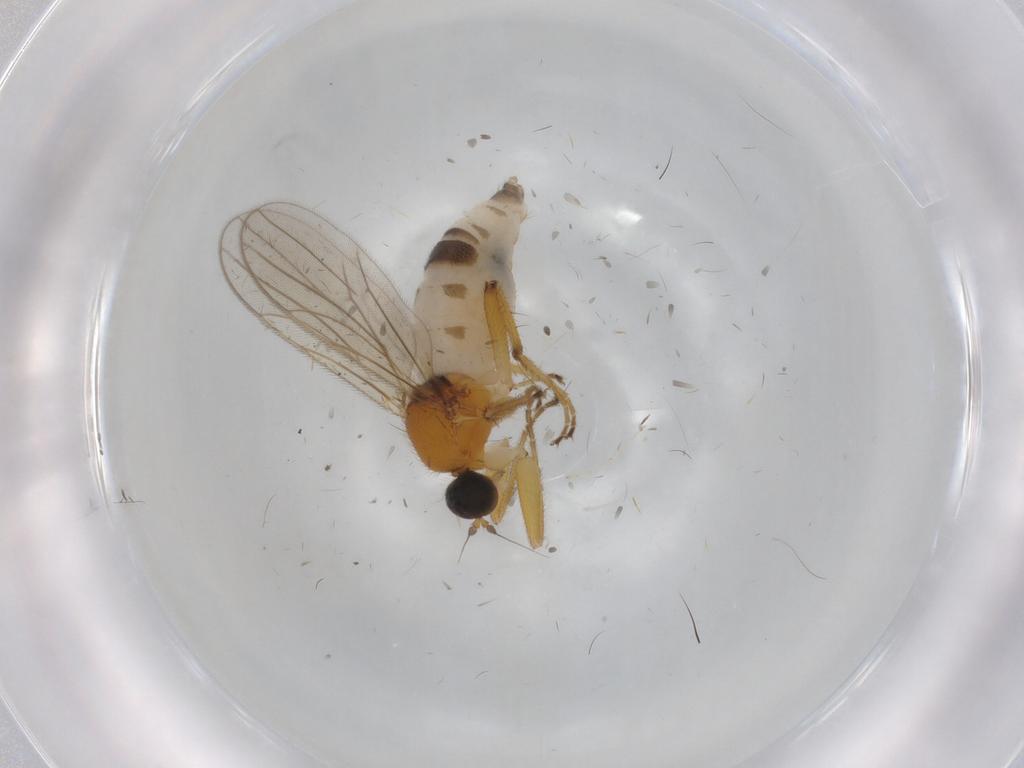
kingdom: Animalia
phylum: Arthropoda
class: Insecta
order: Diptera
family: Hybotidae
